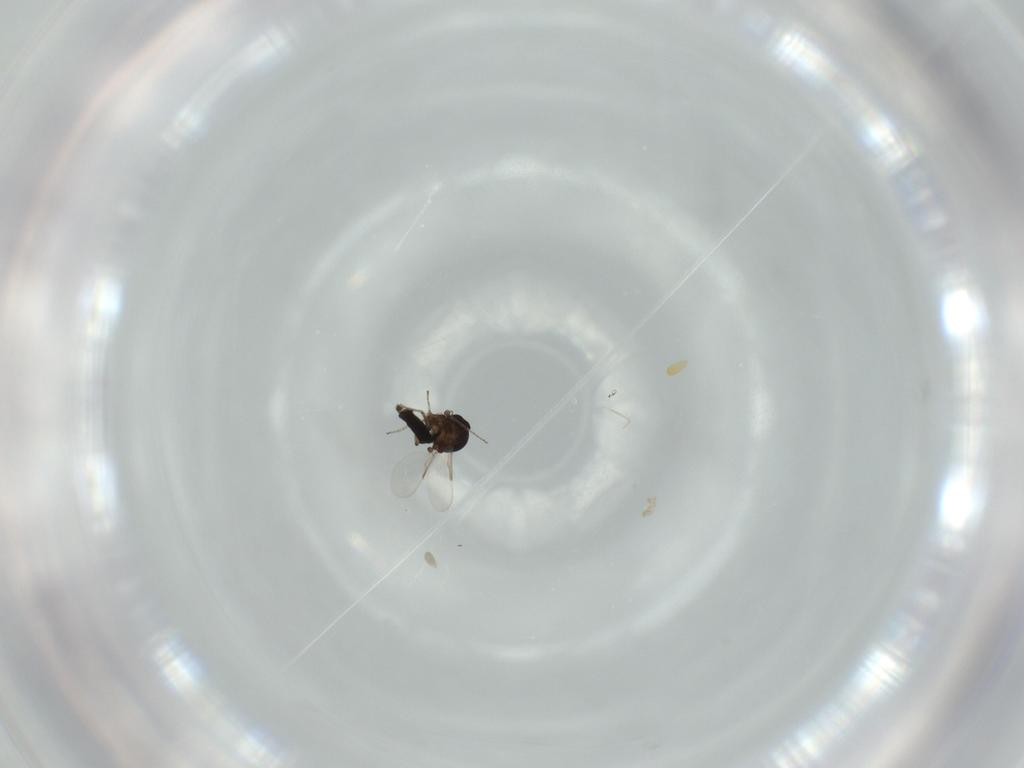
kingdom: Animalia
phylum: Arthropoda
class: Insecta
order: Diptera
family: Ceratopogonidae
